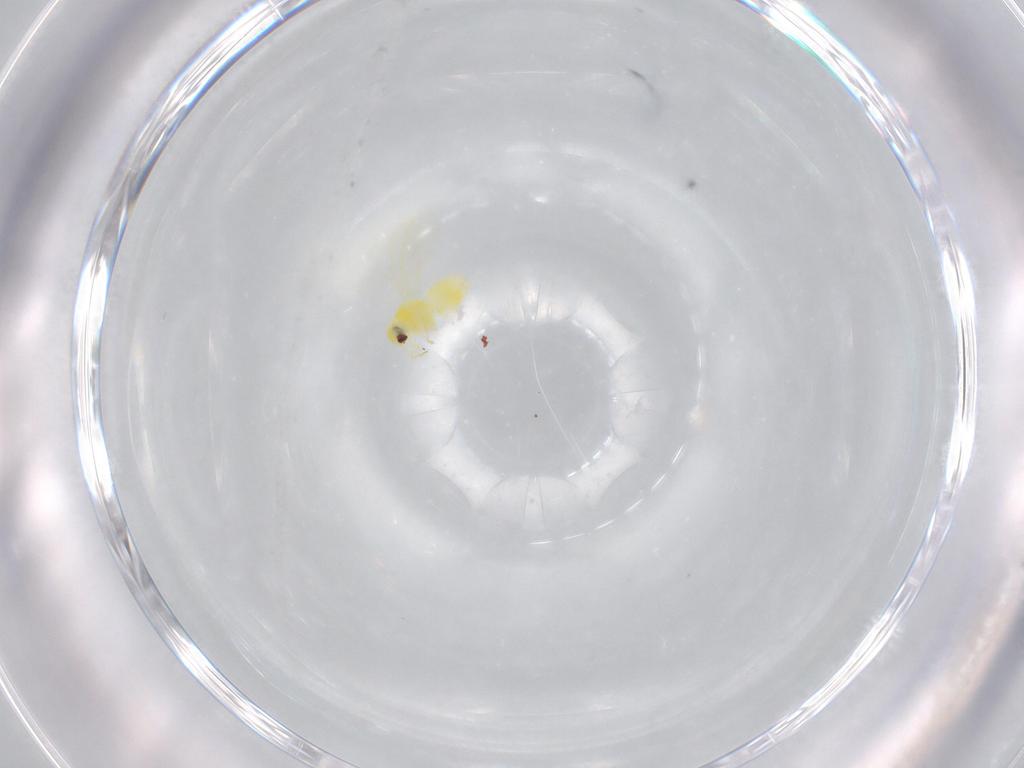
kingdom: Animalia
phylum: Arthropoda
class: Insecta
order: Hemiptera
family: Aleyrodidae
